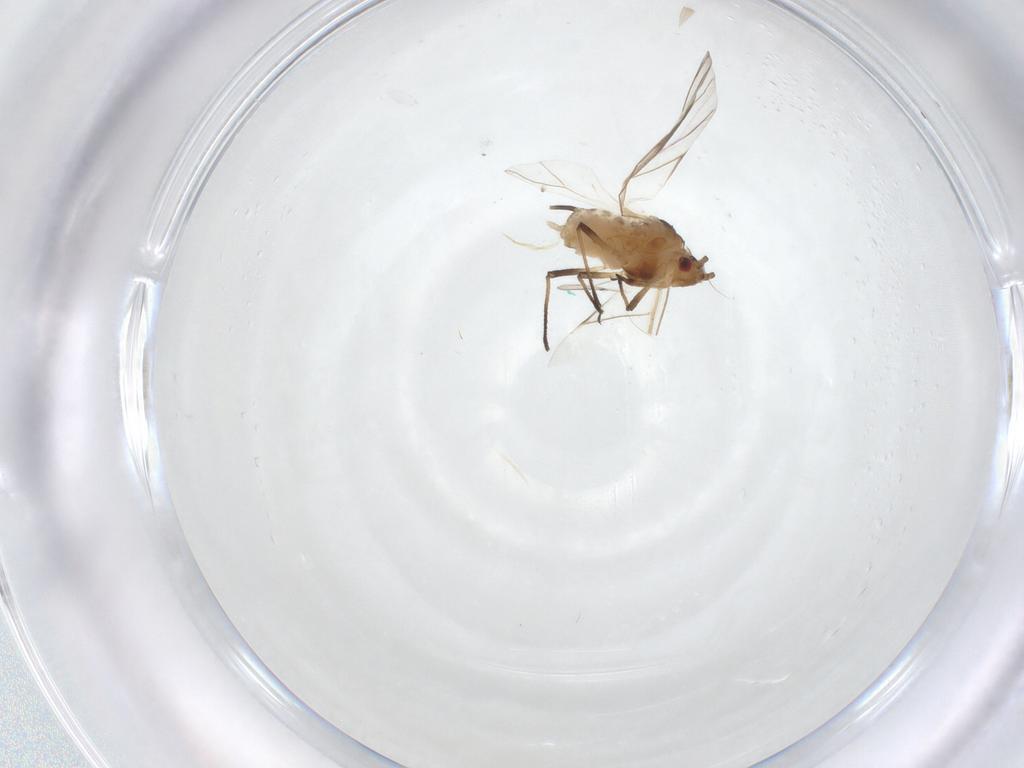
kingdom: Animalia
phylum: Arthropoda
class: Insecta
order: Hemiptera
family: Aphididae
